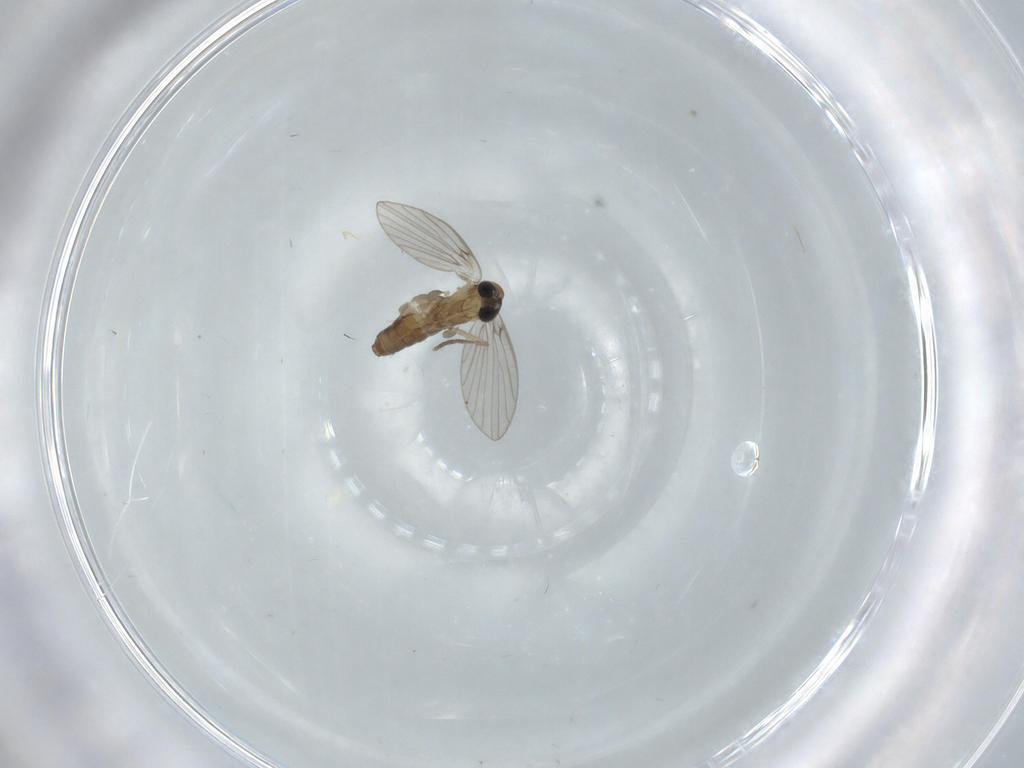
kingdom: Animalia
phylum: Arthropoda
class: Insecta
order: Diptera
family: Psychodidae
